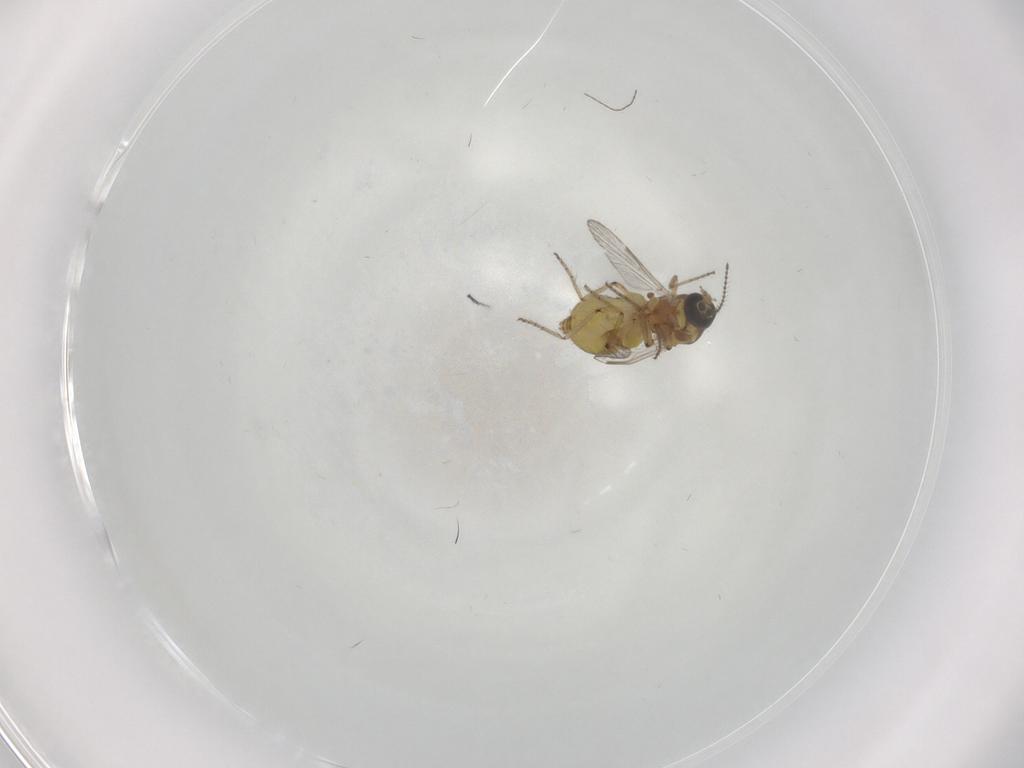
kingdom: Animalia
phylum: Arthropoda
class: Insecta
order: Diptera
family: Ceratopogonidae
